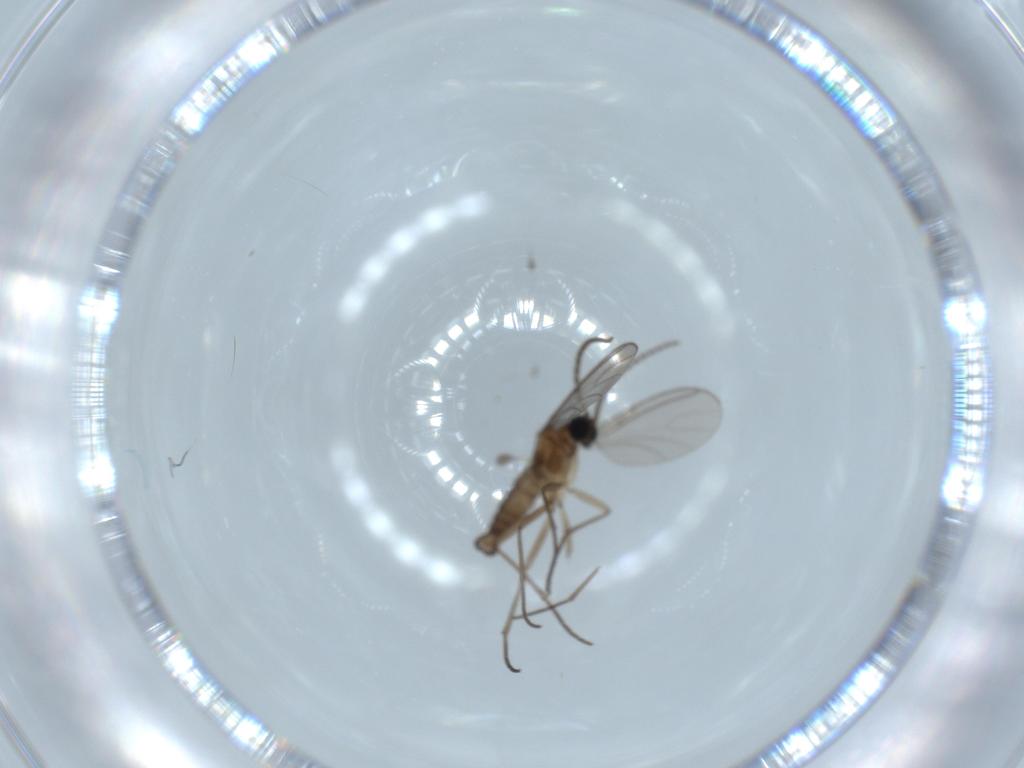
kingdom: Animalia
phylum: Arthropoda
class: Insecta
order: Diptera
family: Sciaridae
